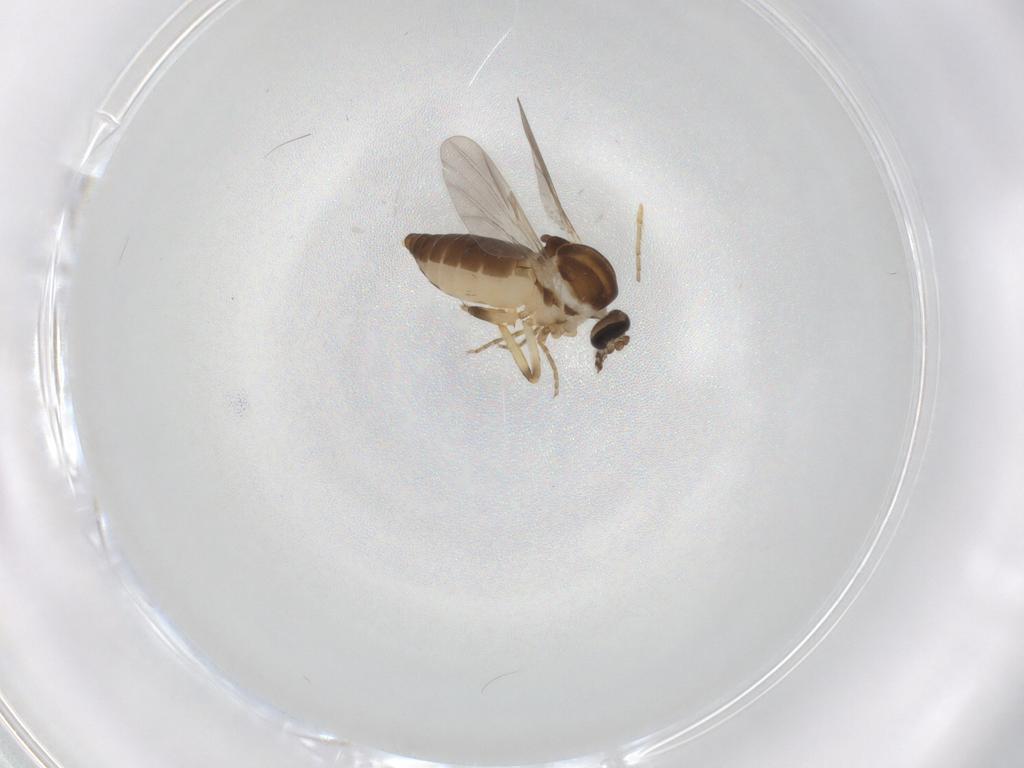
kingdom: Animalia
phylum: Arthropoda
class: Insecta
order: Diptera
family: Ceratopogonidae
